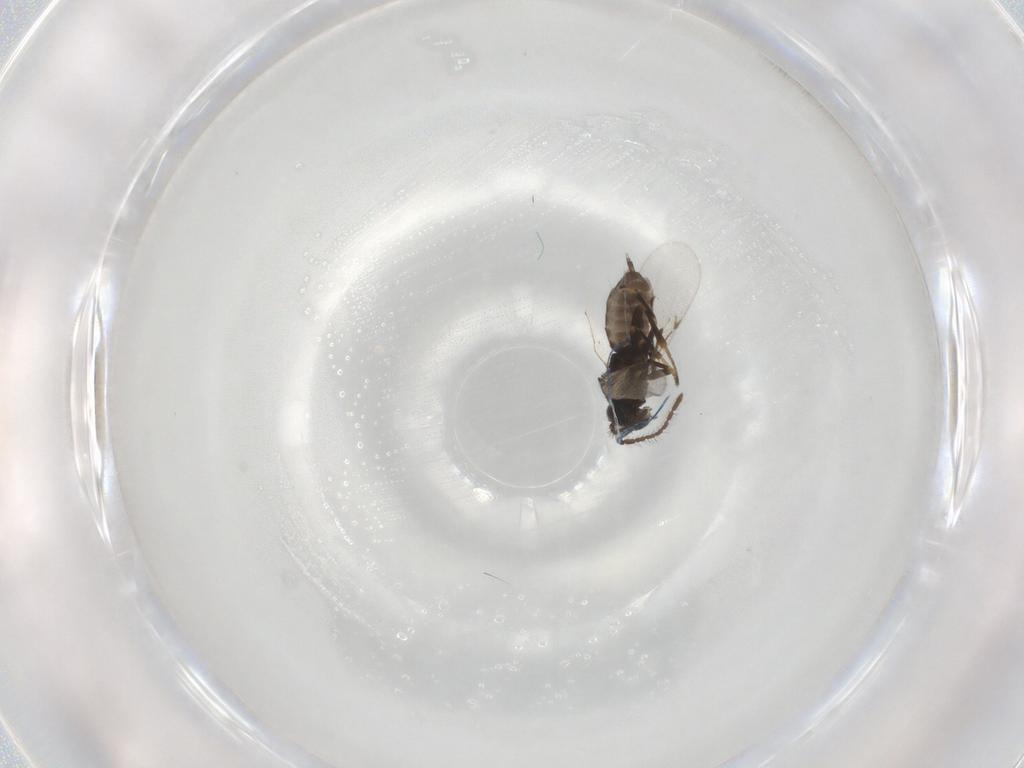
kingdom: Animalia
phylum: Arthropoda
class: Insecta
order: Hymenoptera
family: Encyrtidae
